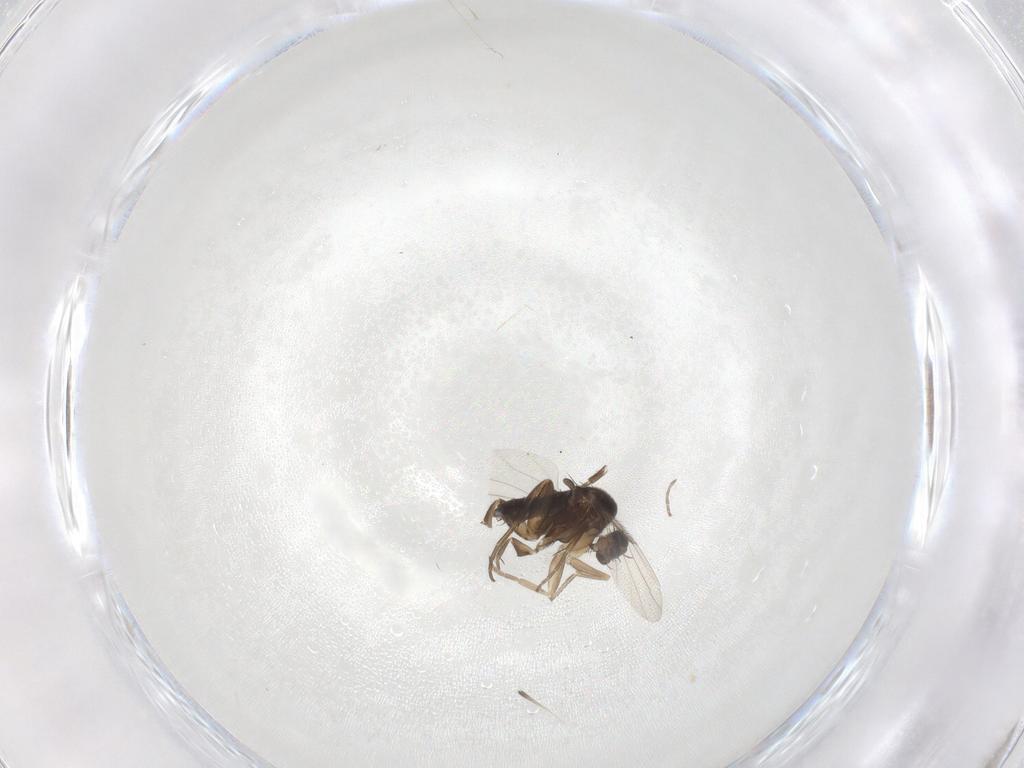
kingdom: Animalia
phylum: Arthropoda
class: Insecta
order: Diptera
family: Phoridae
